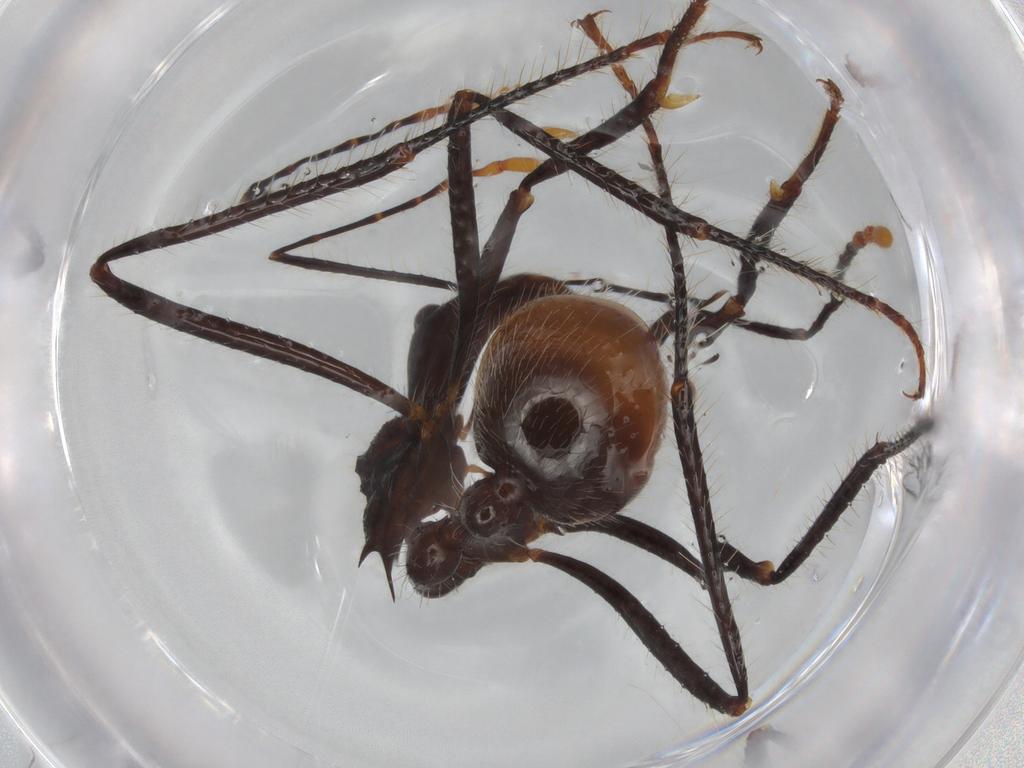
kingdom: Animalia
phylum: Arthropoda
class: Insecta
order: Hymenoptera
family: Formicidae
